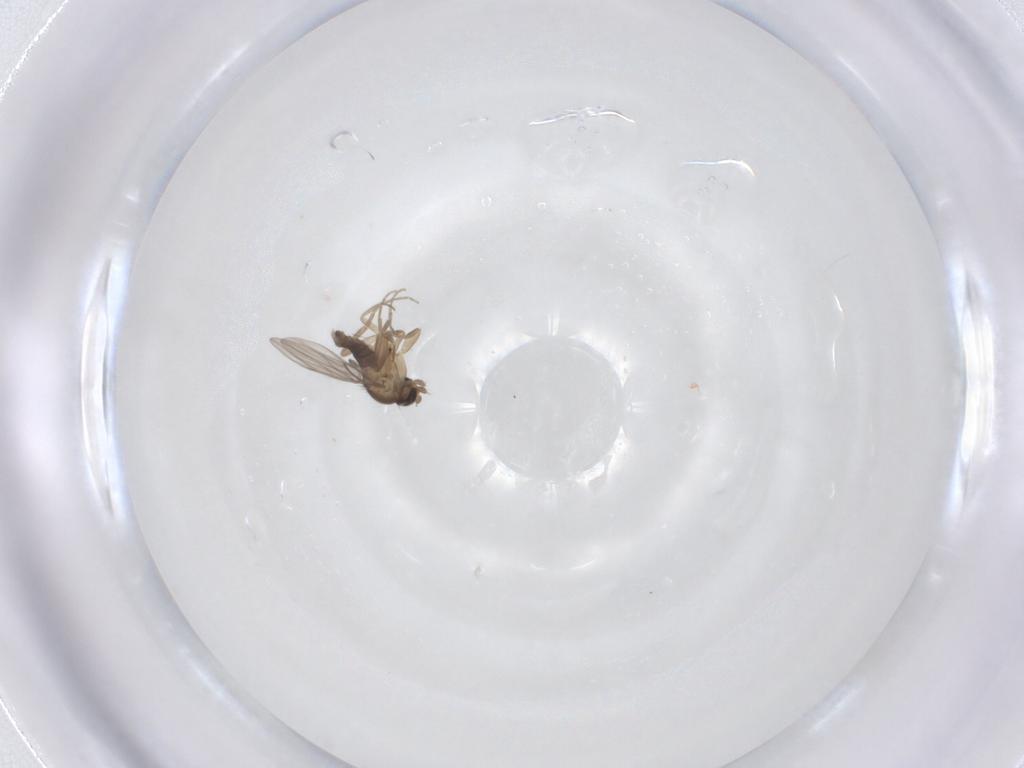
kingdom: Animalia
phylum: Arthropoda
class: Insecta
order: Diptera
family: Phoridae
